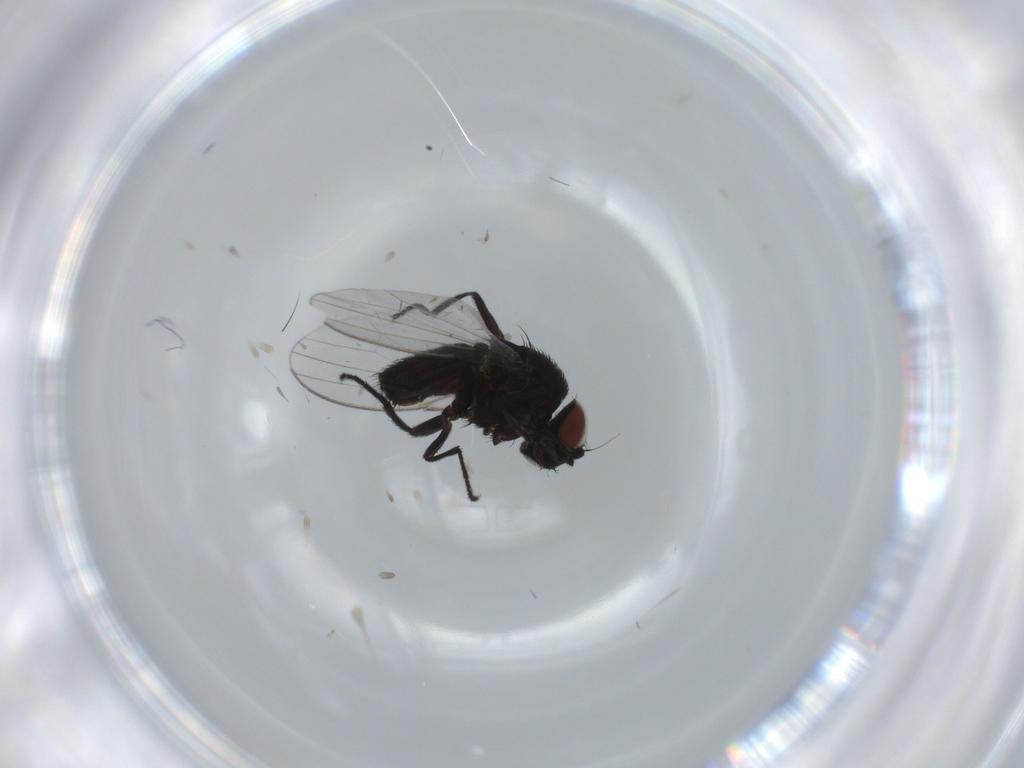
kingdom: Animalia
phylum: Arthropoda
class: Insecta
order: Diptera
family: Milichiidae
